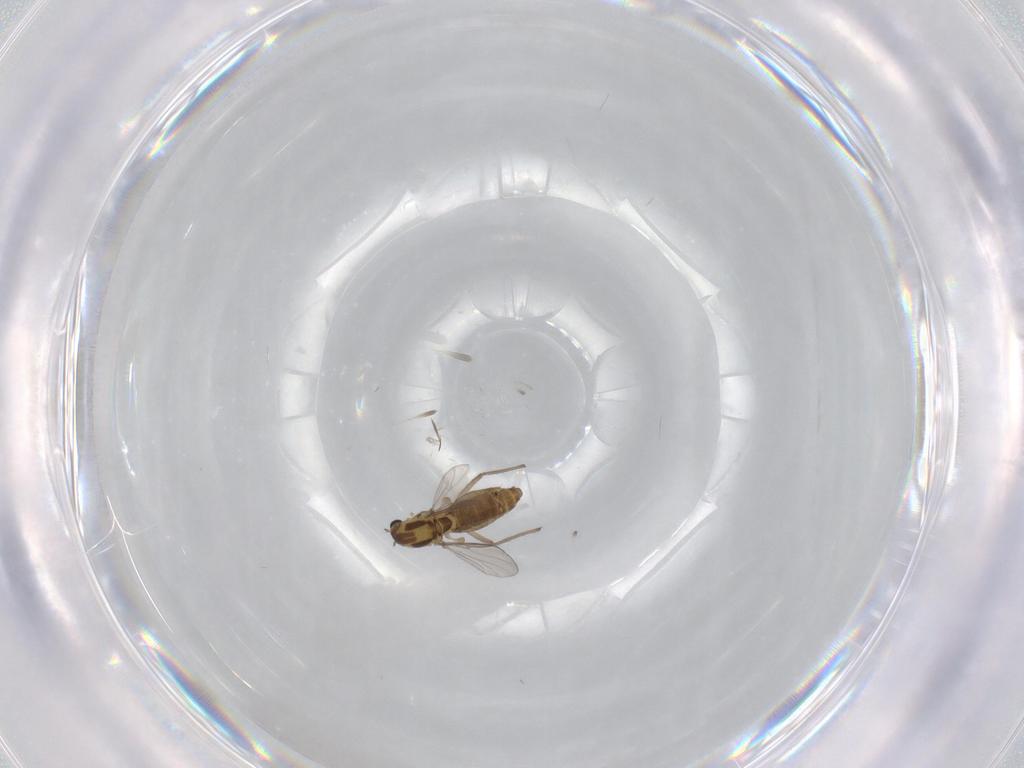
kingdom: Animalia
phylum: Arthropoda
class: Insecta
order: Diptera
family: Chironomidae
